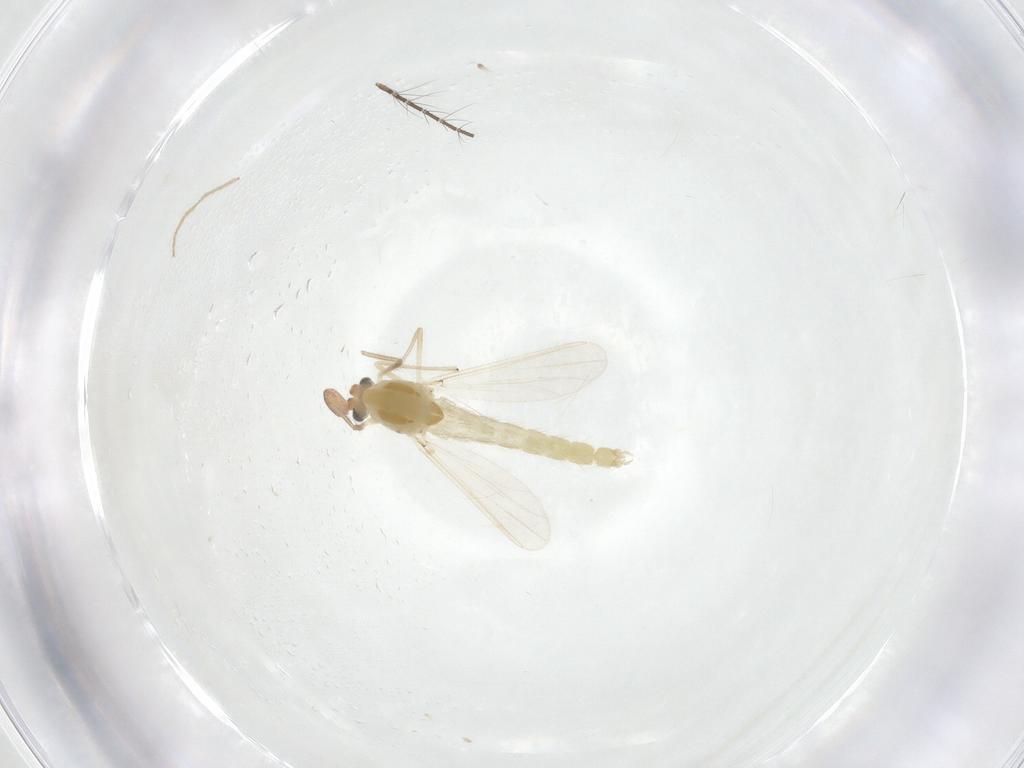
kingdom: Animalia
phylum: Arthropoda
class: Insecta
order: Diptera
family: Chironomidae
